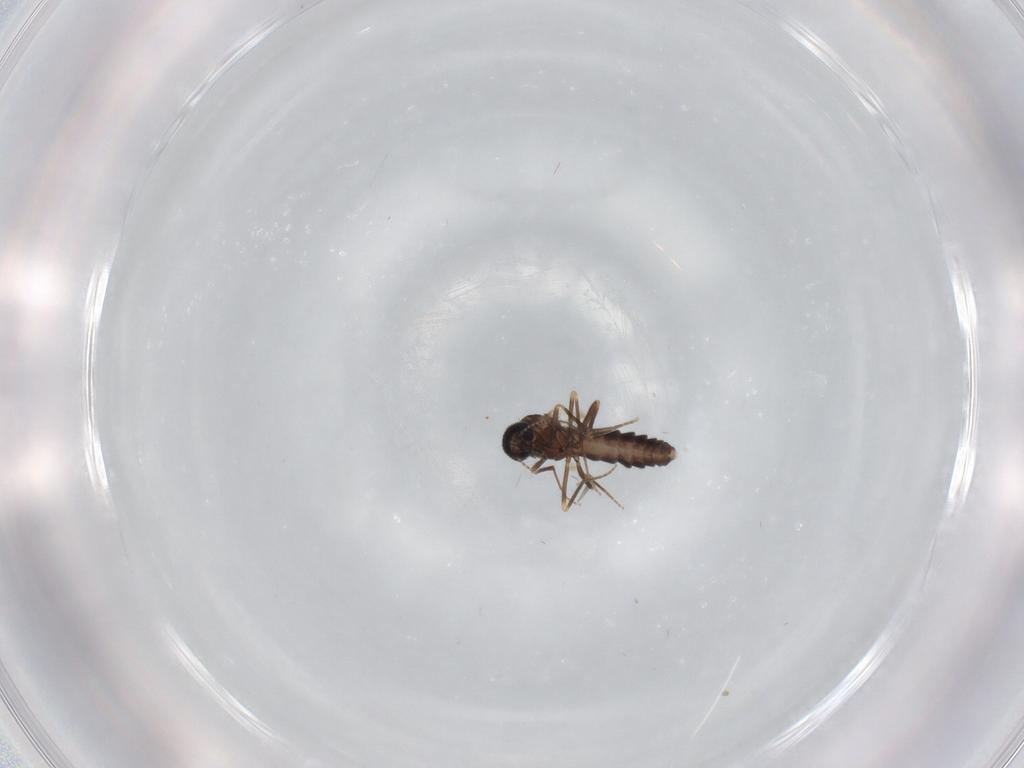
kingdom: Animalia
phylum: Arthropoda
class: Insecta
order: Diptera
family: Ceratopogonidae
